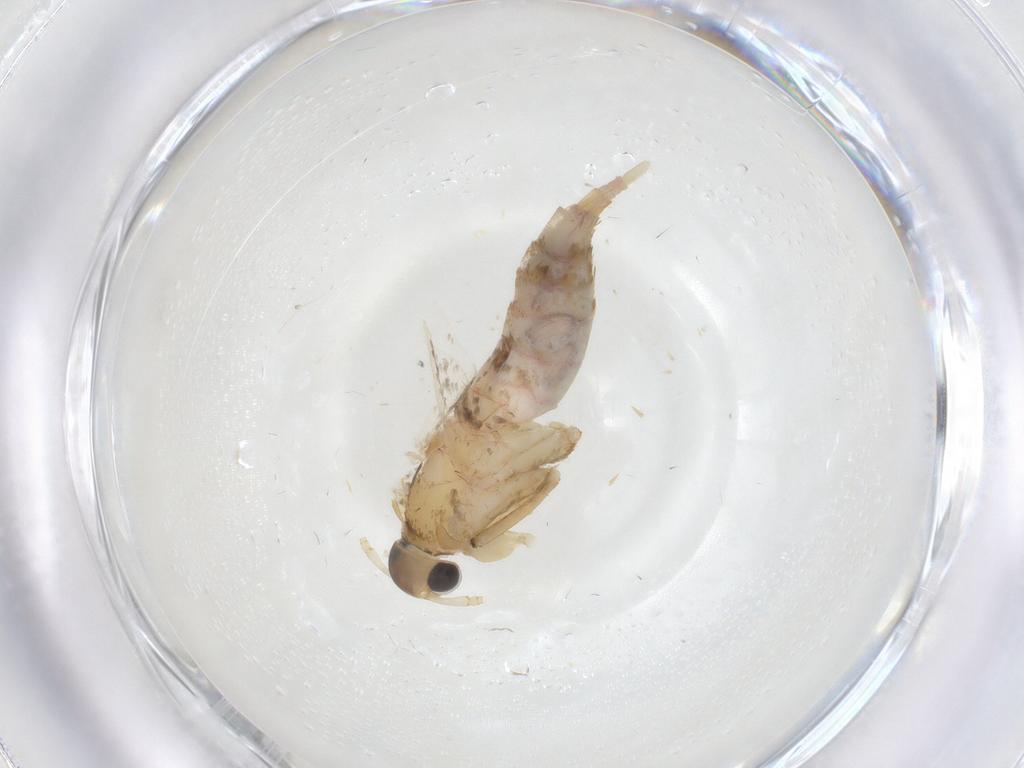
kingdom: Animalia
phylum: Arthropoda
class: Insecta
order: Lepidoptera
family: Lecithoceridae
